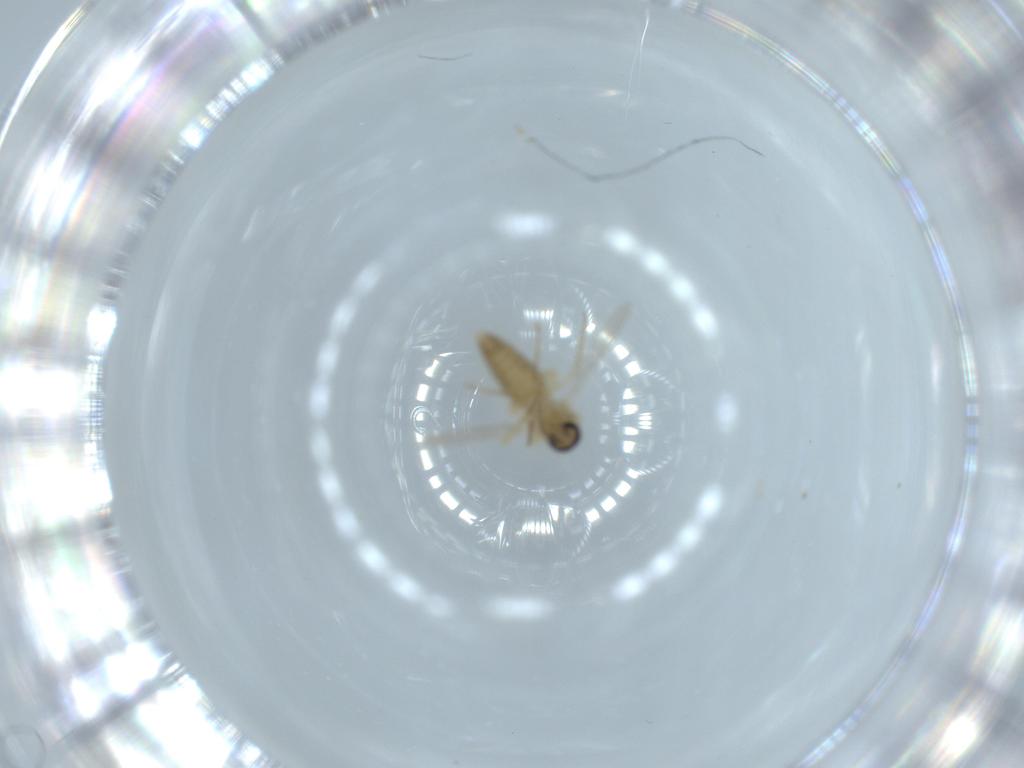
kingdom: Animalia
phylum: Arthropoda
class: Insecta
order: Diptera
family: Ceratopogonidae
